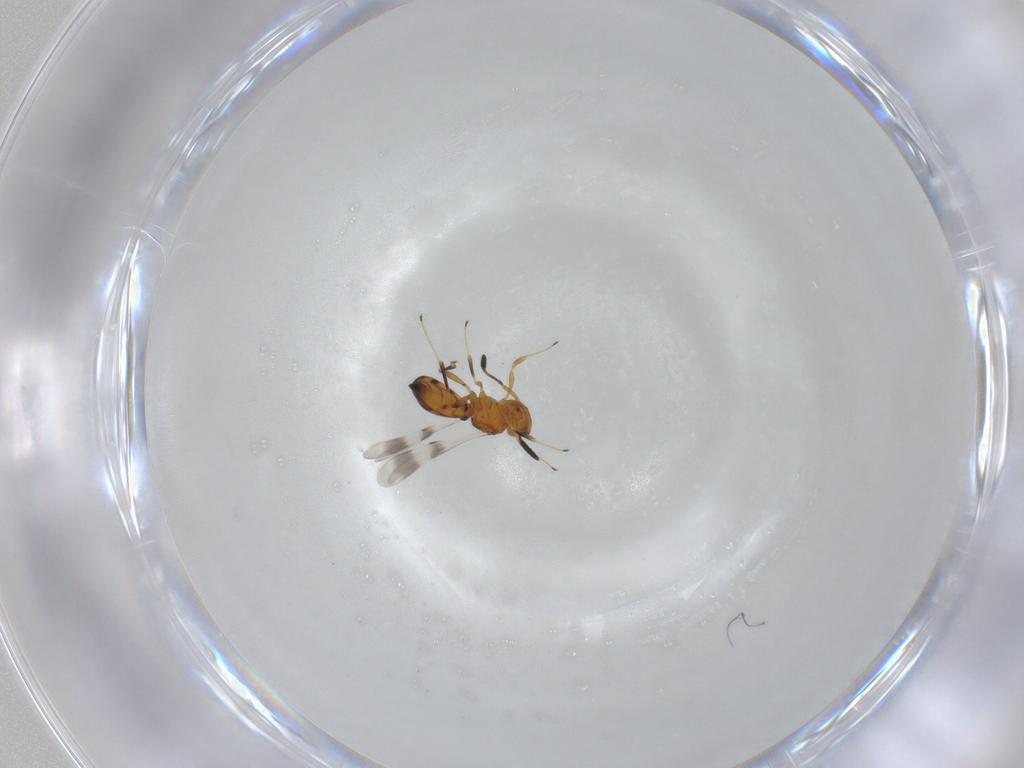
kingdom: Animalia
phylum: Arthropoda
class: Insecta
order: Hymenoptera
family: Scelionidae
